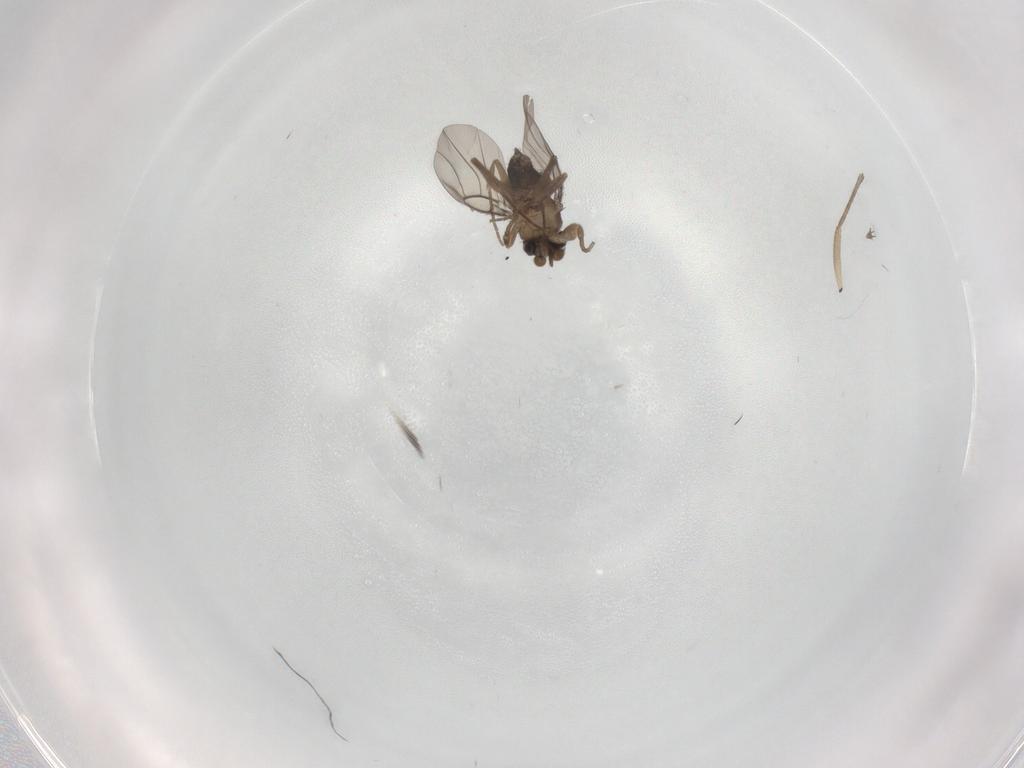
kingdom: Animalia
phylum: Arthropoda
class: Insecta
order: Diptera
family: Phoridae
